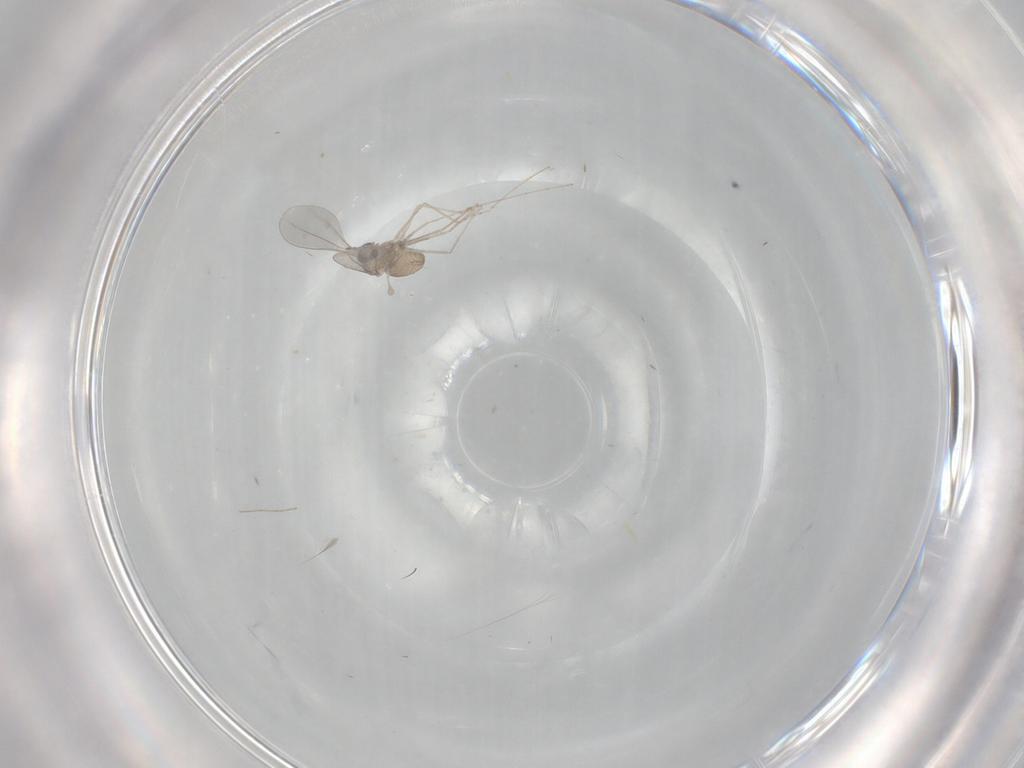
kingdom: Animalia
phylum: Arthropoda
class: Insecta
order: Diptera
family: Cecidomyiidae
